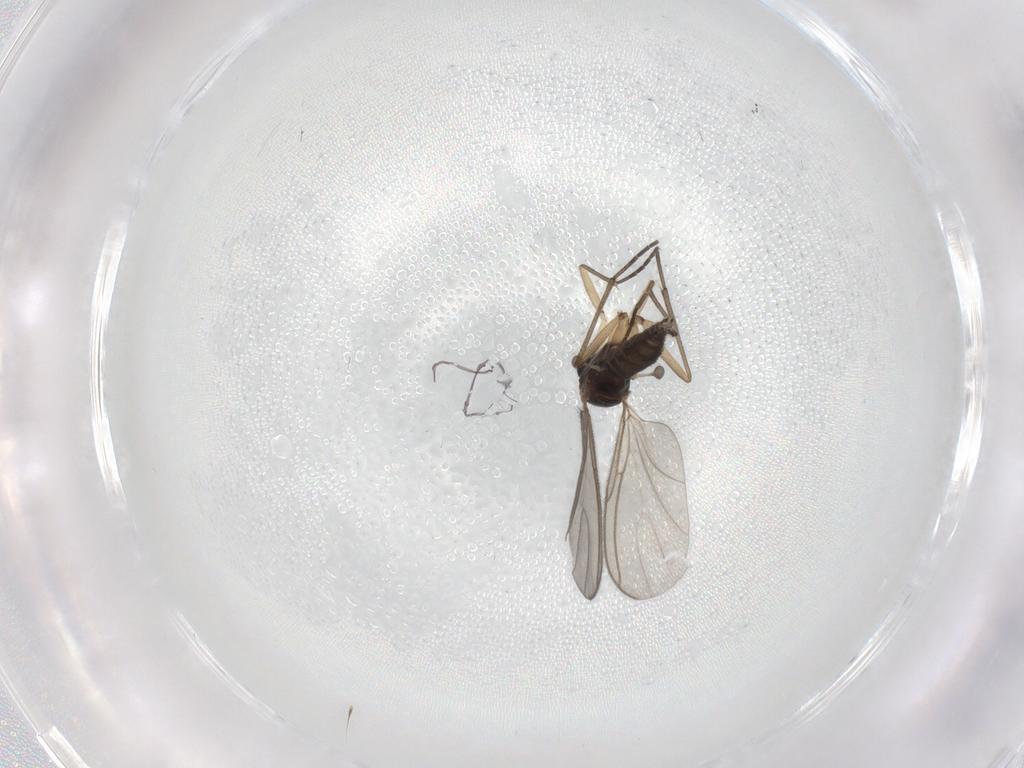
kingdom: Animalia
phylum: Arthropoda
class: Insecta
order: Diptera
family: Sciaridae
